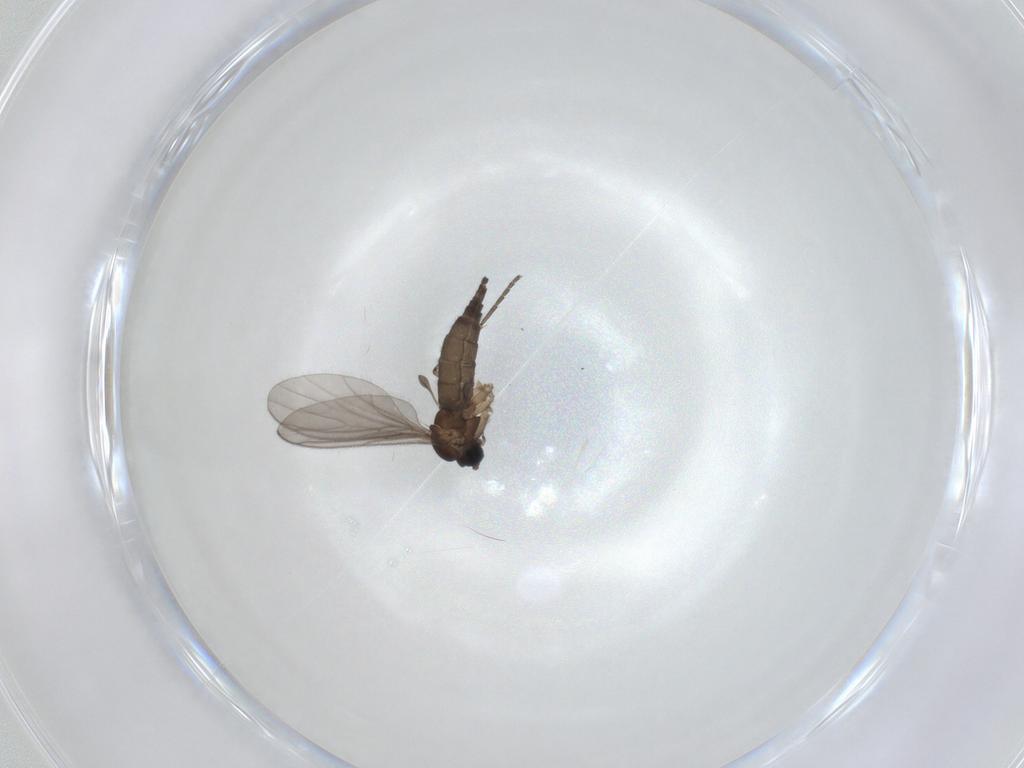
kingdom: Animalia
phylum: Arthropoda
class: Insecta
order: Diptera
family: Sciaridae
